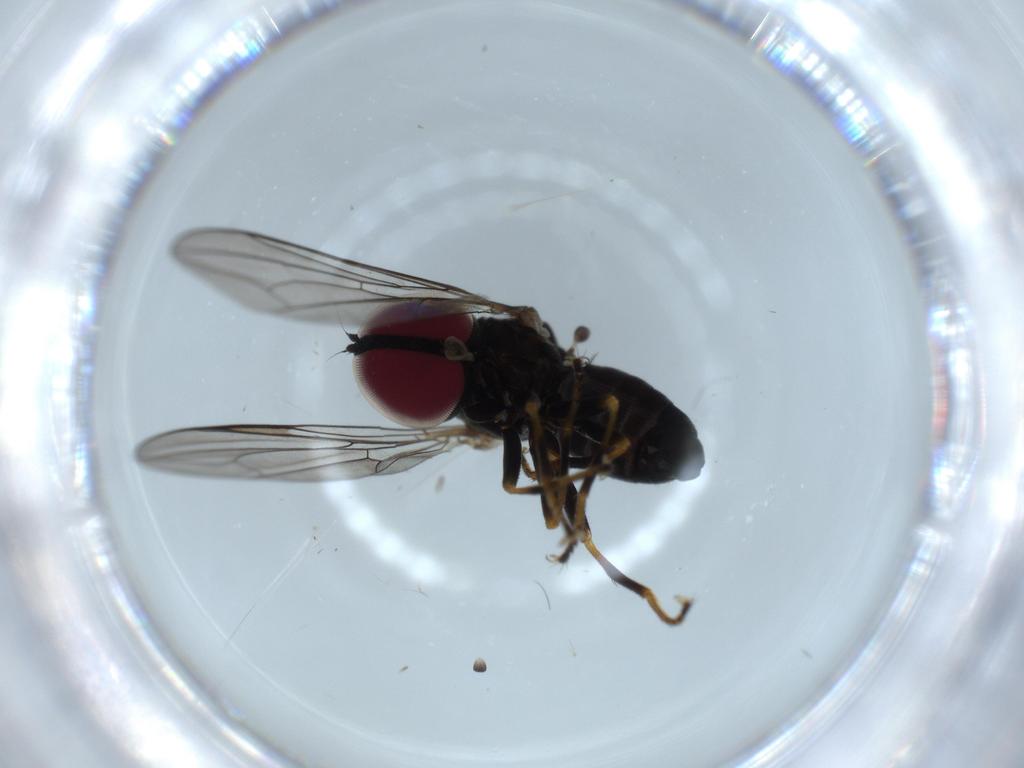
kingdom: Animalia
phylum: Arthropoda
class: Insecta
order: Diptera
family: Pipunculidae
